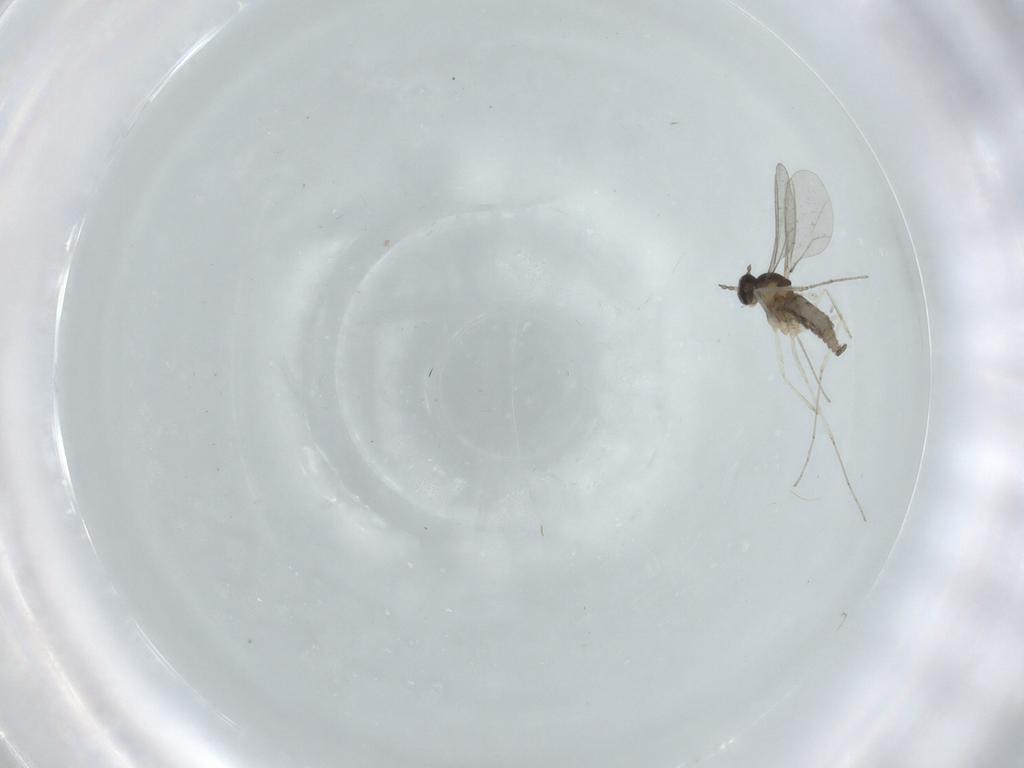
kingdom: Animalia
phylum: Arthropoda
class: Insecta
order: Diptera
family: Cecidomyiidae
